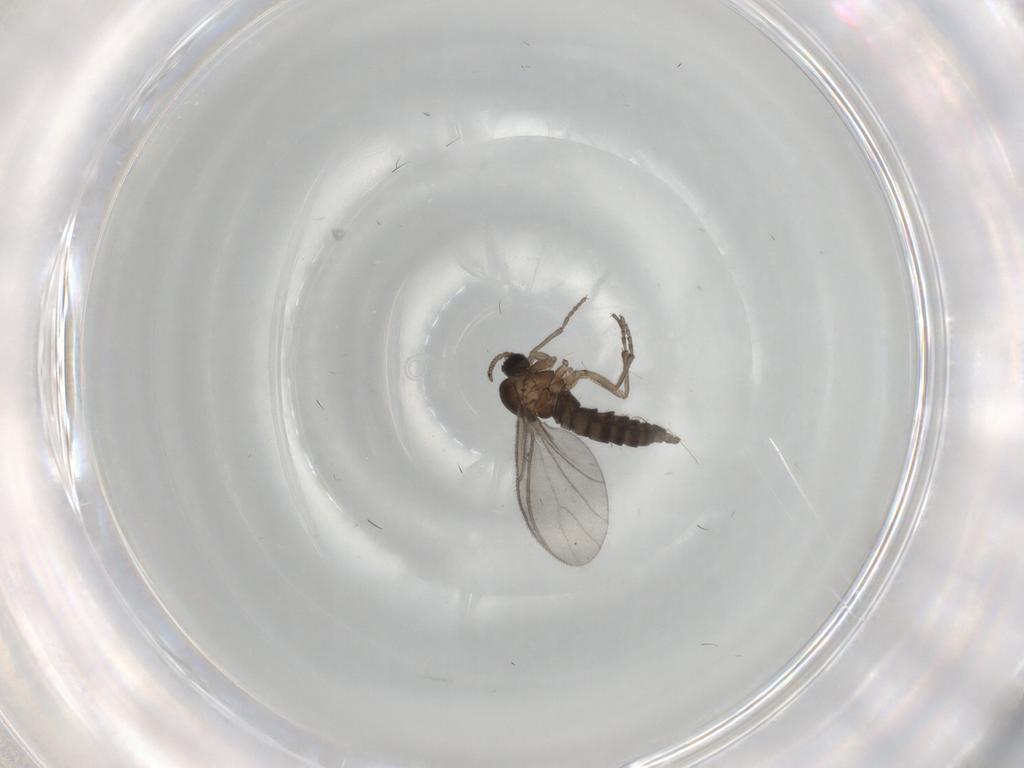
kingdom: Animalia
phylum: Arthropoda
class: Insecta
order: Diptera
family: Sciaridae
